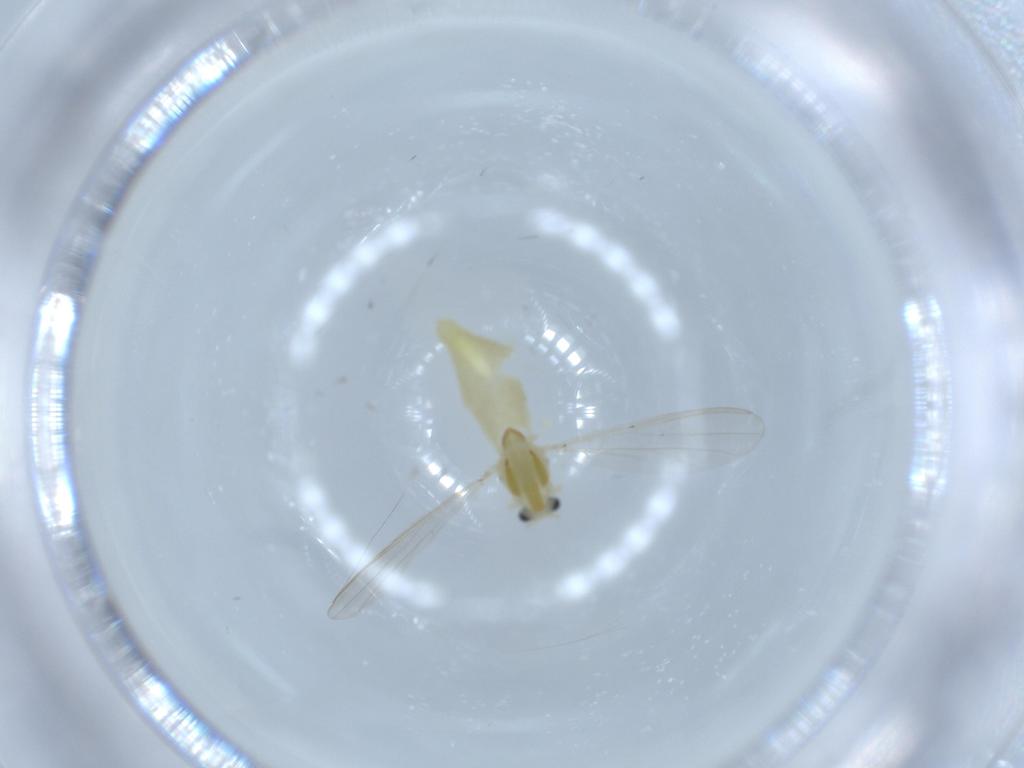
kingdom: Animalia
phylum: Arthropoda
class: Insecta
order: Diptera
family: Chironomidae
